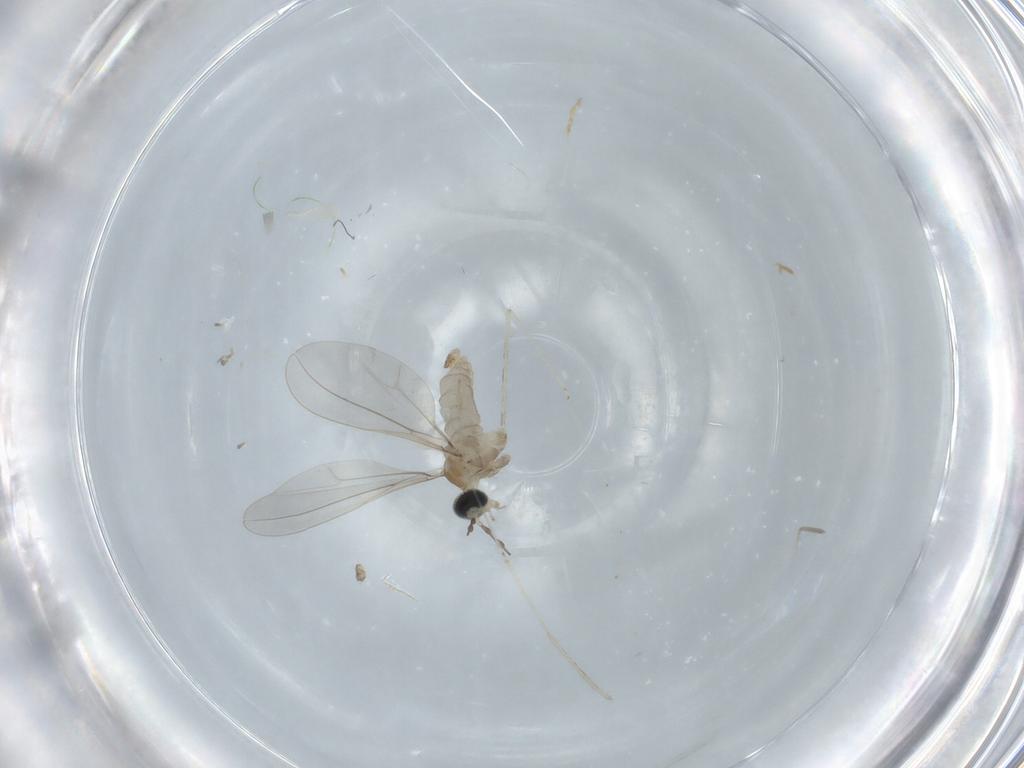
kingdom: Animalia
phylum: Arthropoda
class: Insecta
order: Diptera
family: Cecidomyiidae
